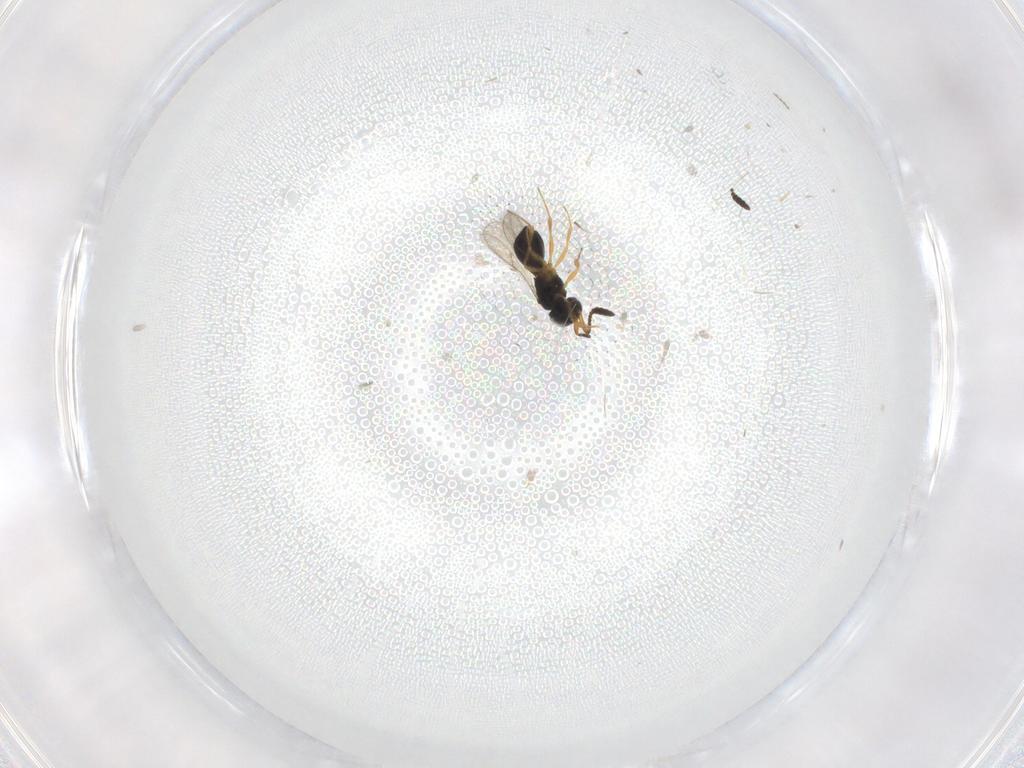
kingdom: Animalia
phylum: Arthropoda
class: Insecta
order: Hymenoptera
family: Scelionidae
